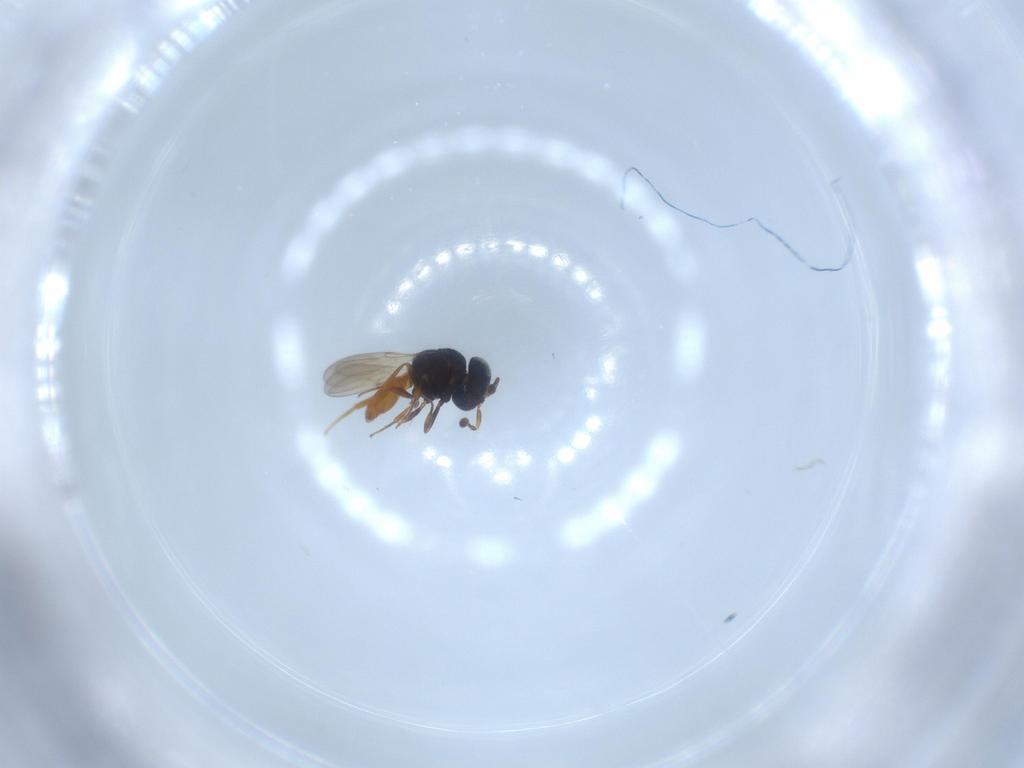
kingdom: Animalia
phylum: Arthropoda
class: Insecta
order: Hymenoptera
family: Scelionidae
